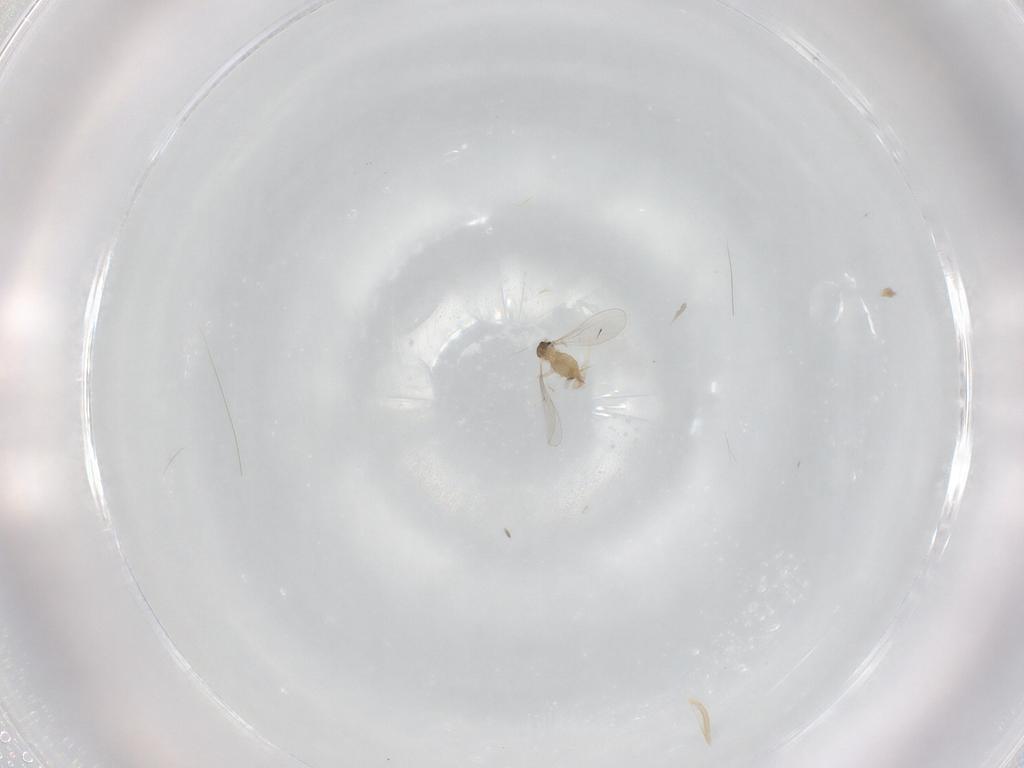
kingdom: Animalia
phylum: Arthropoda
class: Insecta
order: Diptera
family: Cecidomyiidae
